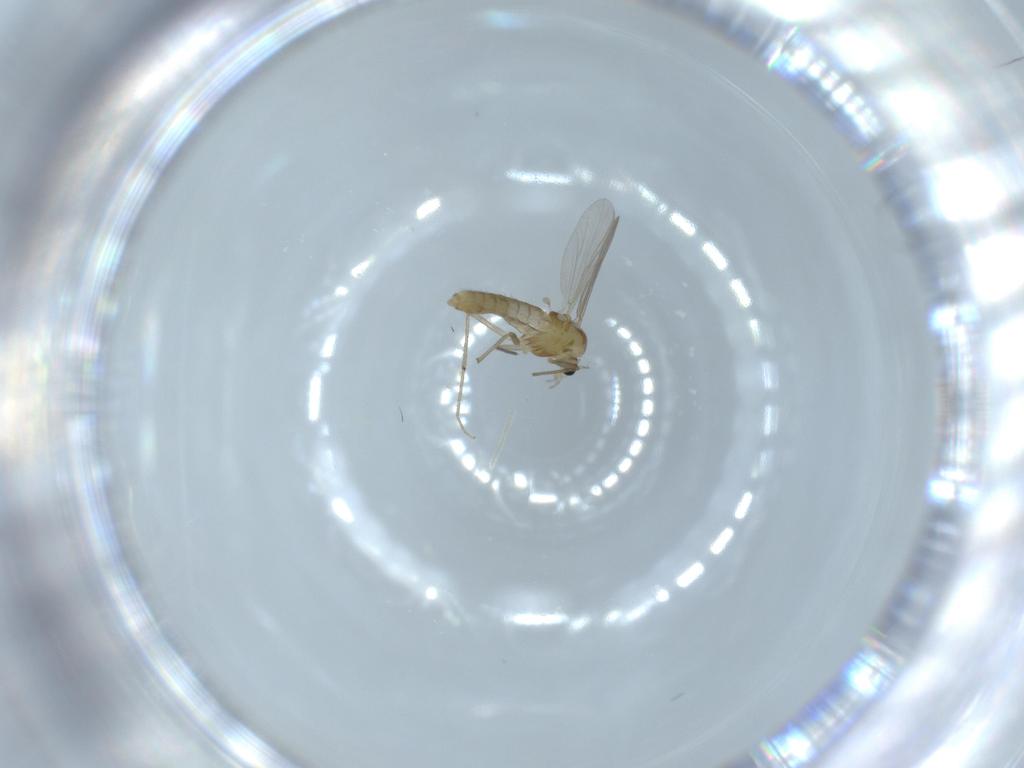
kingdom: Animalia
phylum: Arthropoda
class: Insecta
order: Diptera
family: Chironomidae
